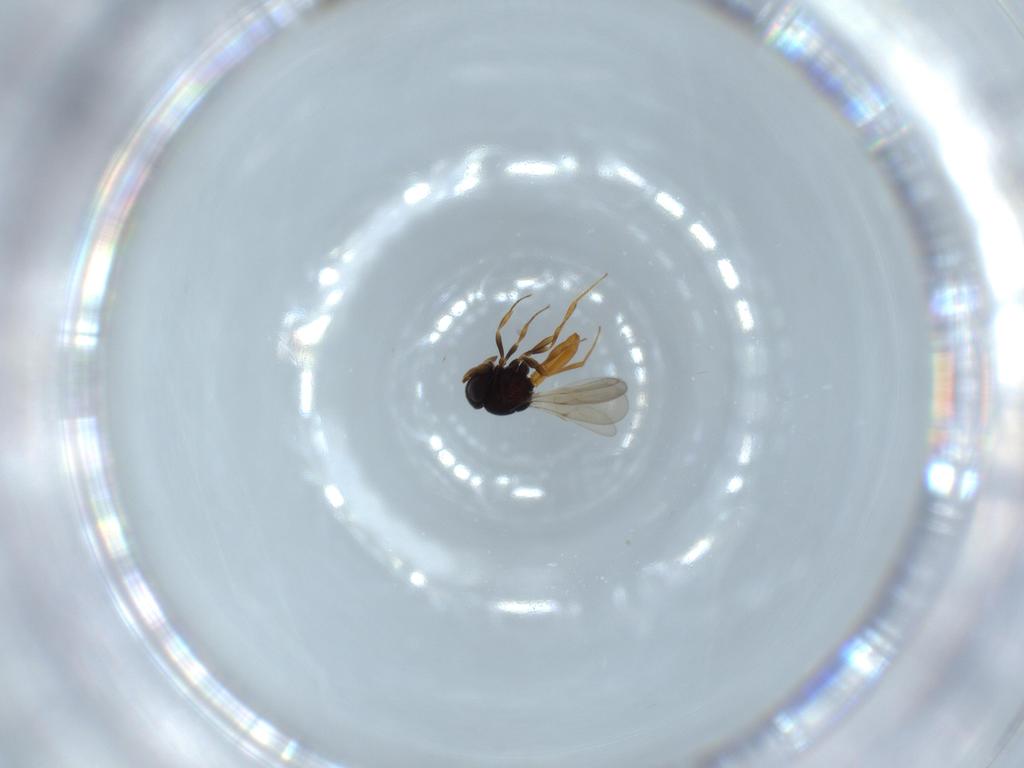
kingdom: Animalia
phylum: Arthropoda
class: Insecta
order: Hymenoptera
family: Scelionidae
